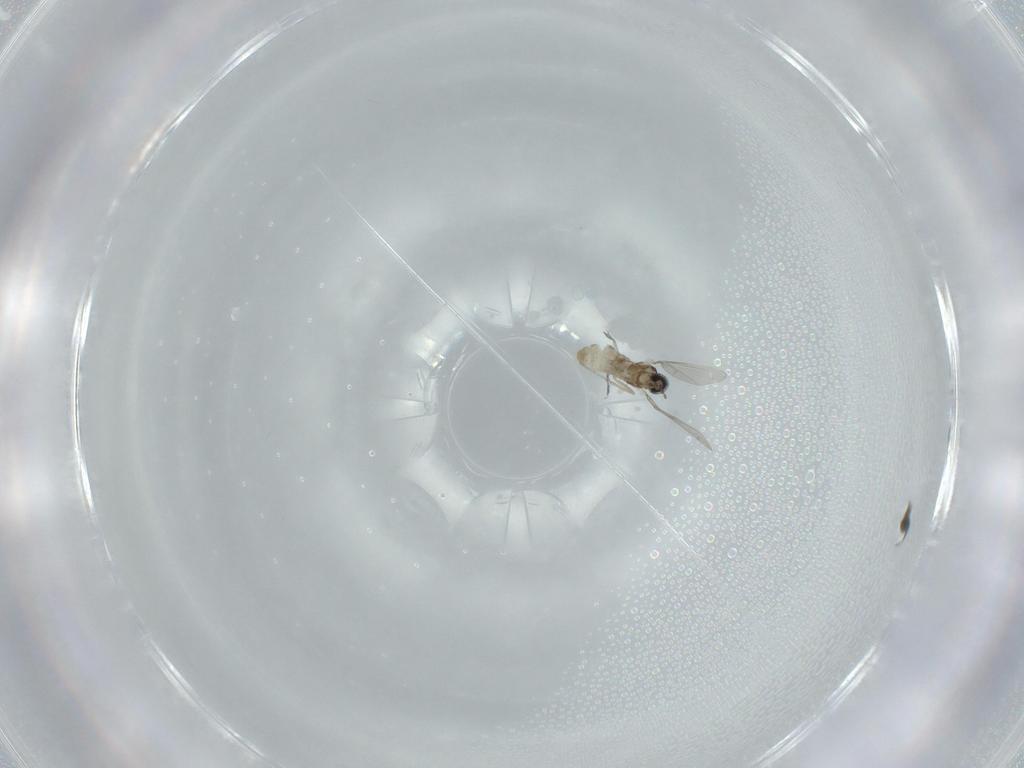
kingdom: Animalia
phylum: Arthropoda
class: Insecta
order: Diptera
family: Cecidomyiidae
